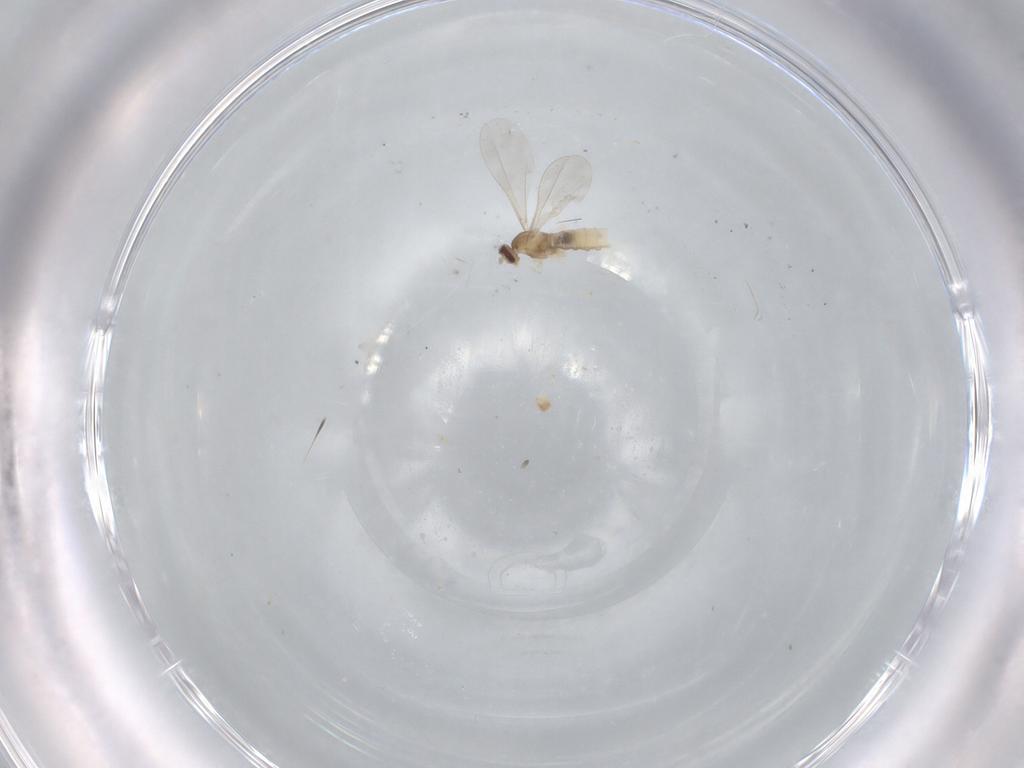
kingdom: Animalia
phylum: Arthropoda
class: Insecta
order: Diptera
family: Cecidomyiidae
